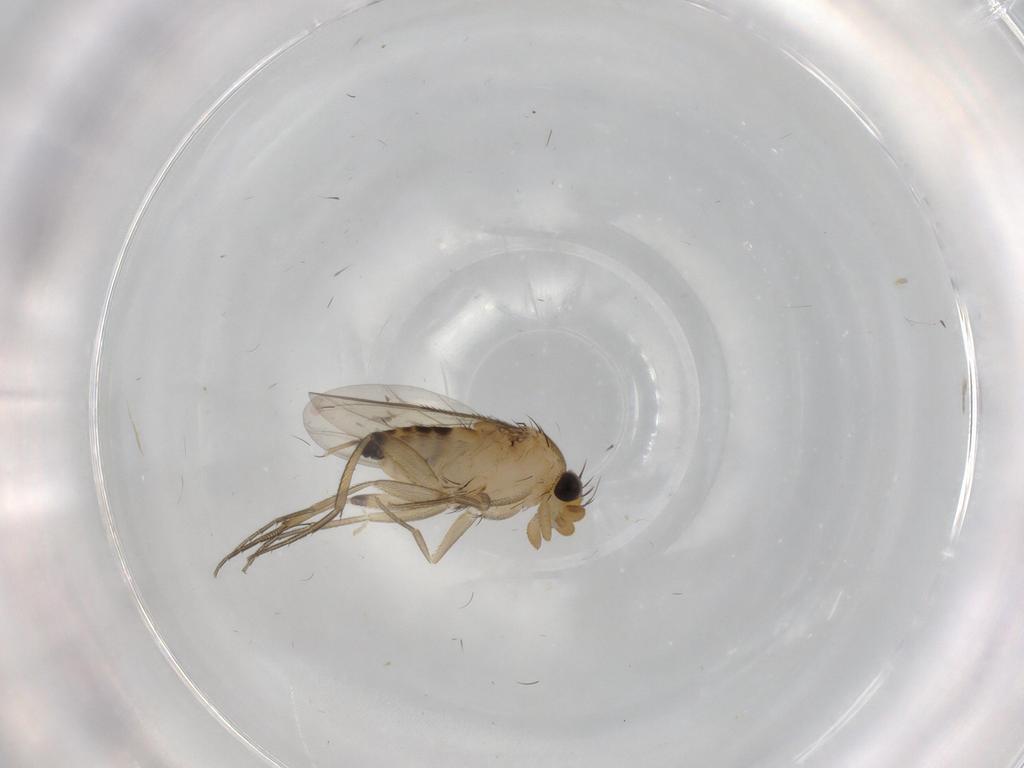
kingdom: Animalia
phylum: Arthropoda
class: Insecta
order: Diptera
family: Phoridae
